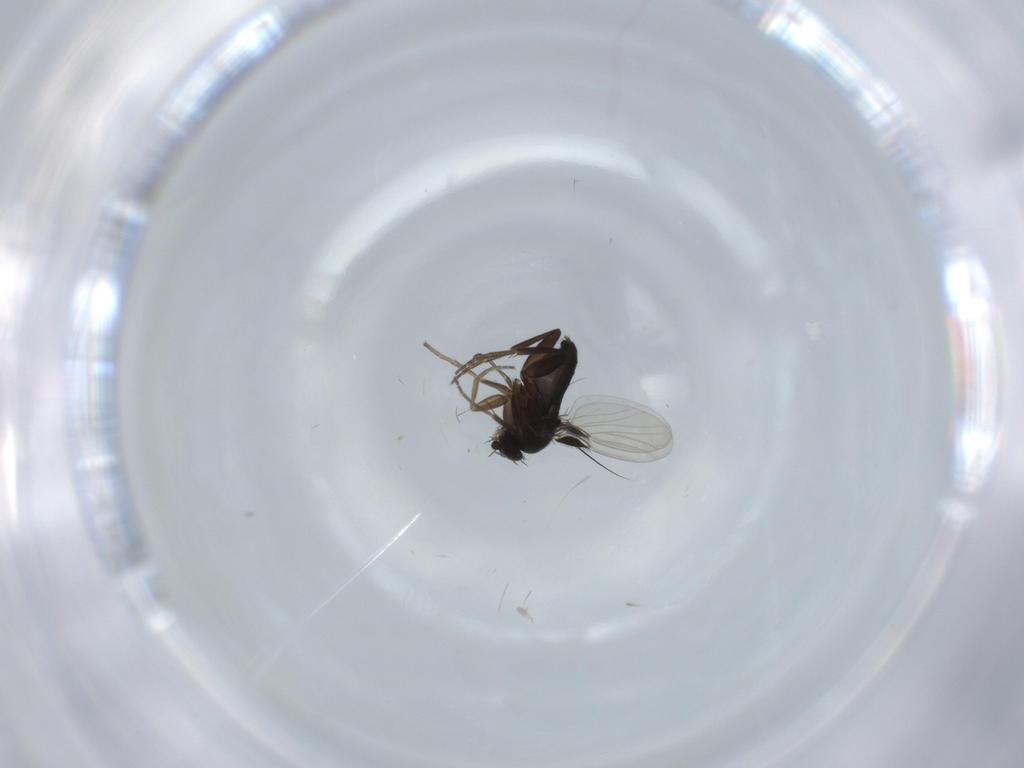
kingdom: Animalia
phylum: Arthropoda
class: Insecta
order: Diptera
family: Phoridae
